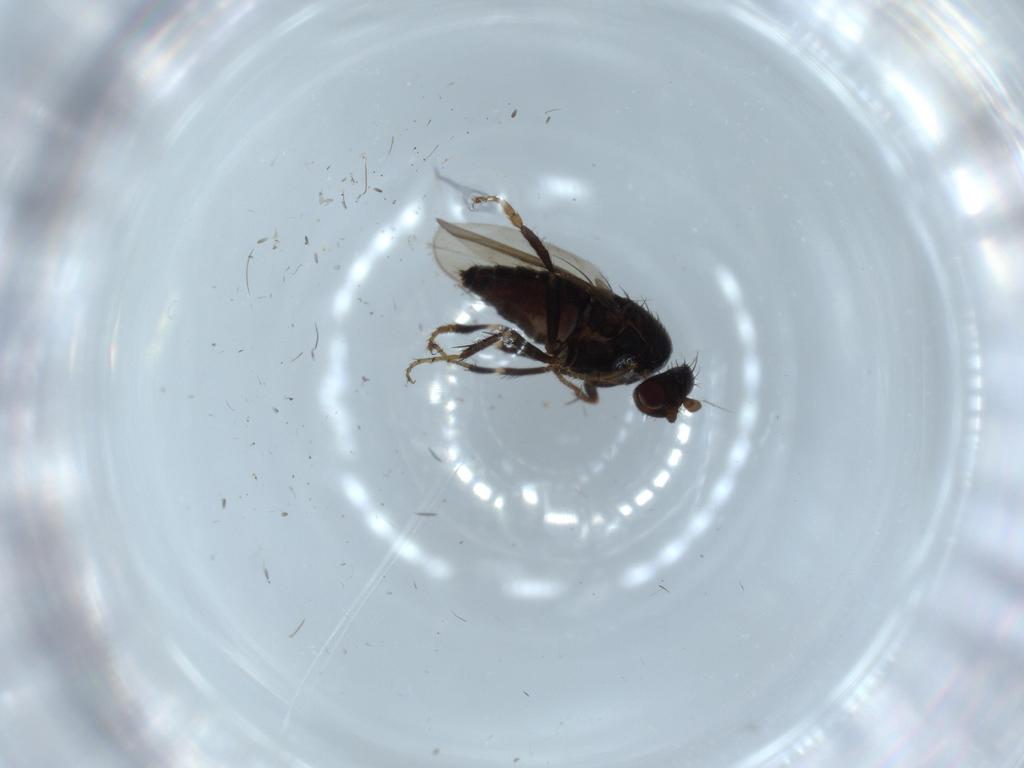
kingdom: Animalia
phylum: Arthropoda
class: Insecta
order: Diptera
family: Sphaeroceridae
